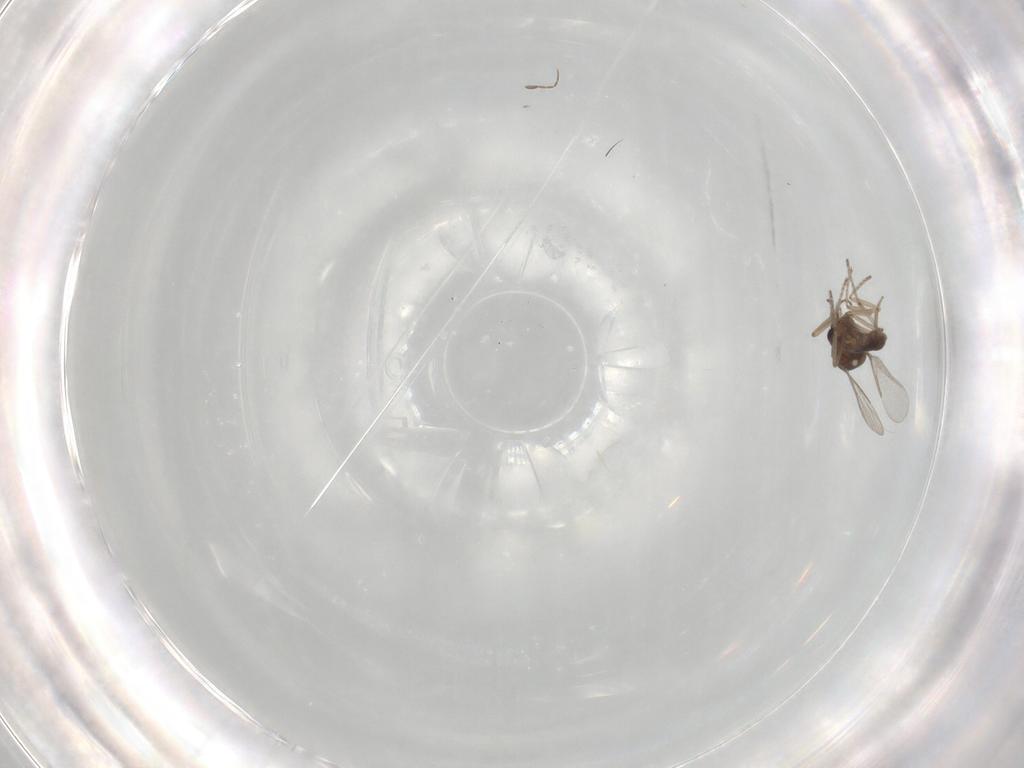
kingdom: Animalia
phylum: Arthropoda
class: Insecta
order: Diptera
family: Ceratopogonidae
